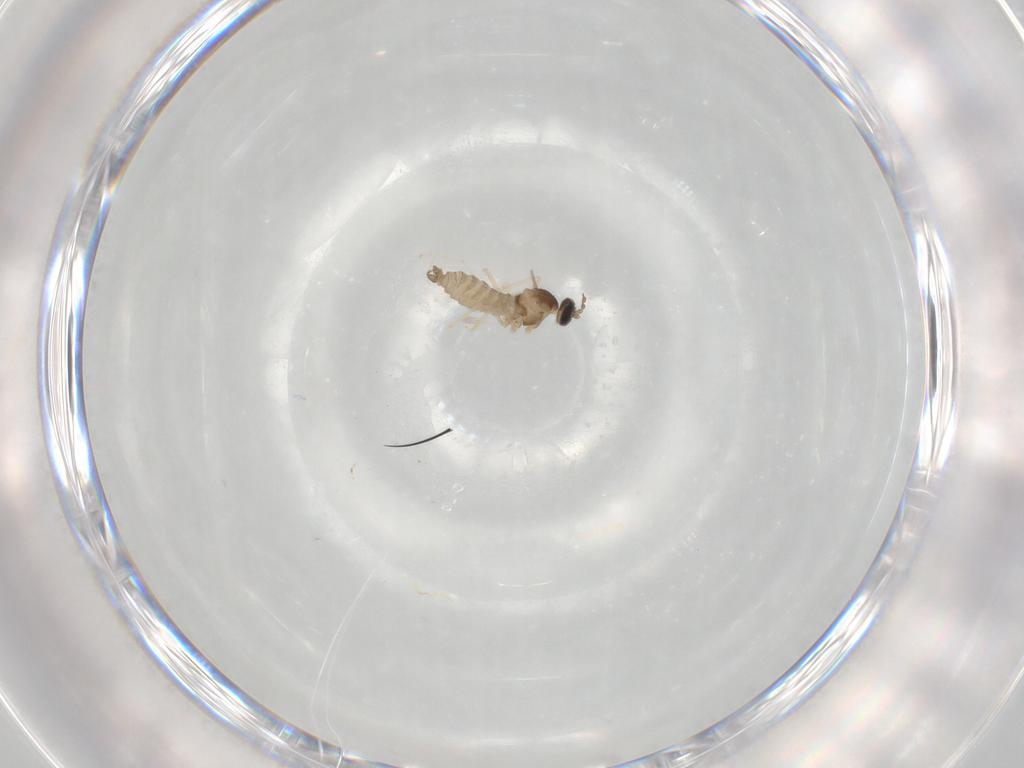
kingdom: Animalia
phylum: Arthropoda
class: Insecta
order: Diptera
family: Cecidomyiidae
